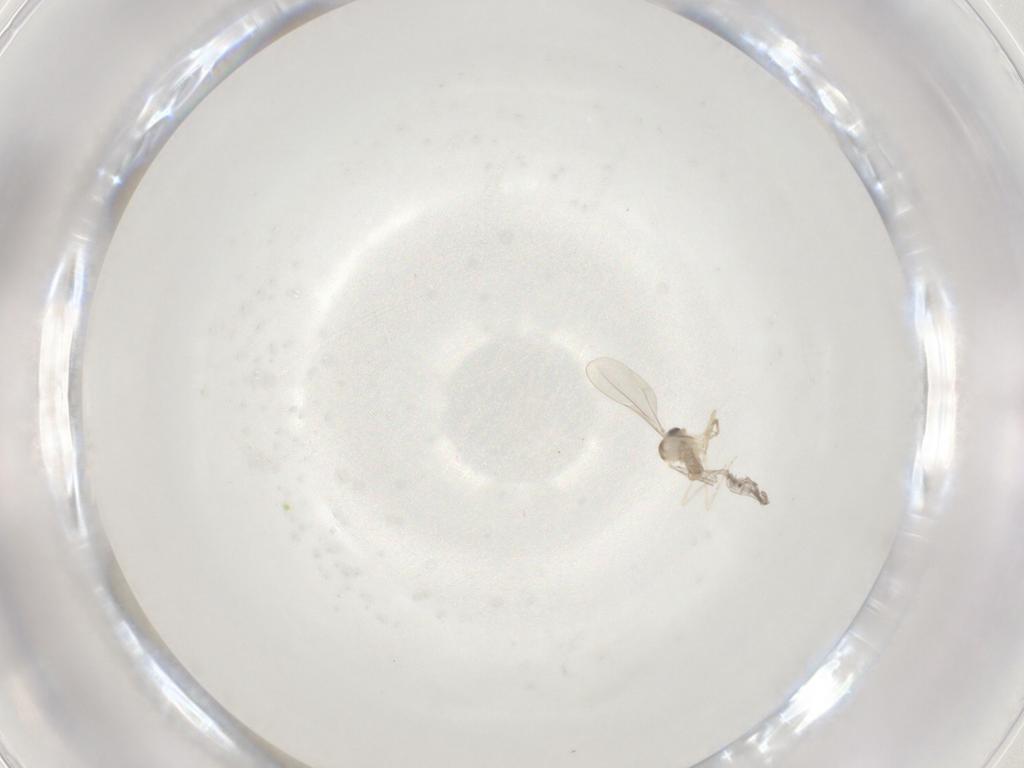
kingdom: Animalia
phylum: Arthropoda
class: Insecta
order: Diptera
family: Cecidomyiidae
